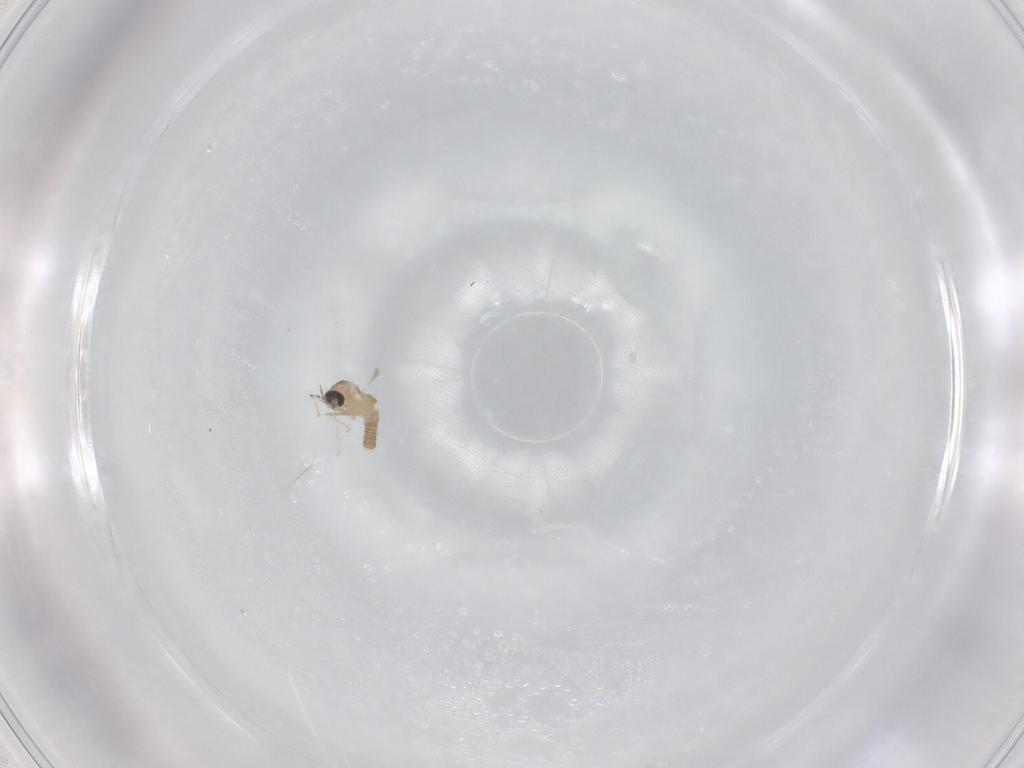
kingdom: Animalia
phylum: Arthropoda
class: Insecta
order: Diptera
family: Cecidomyiidae
